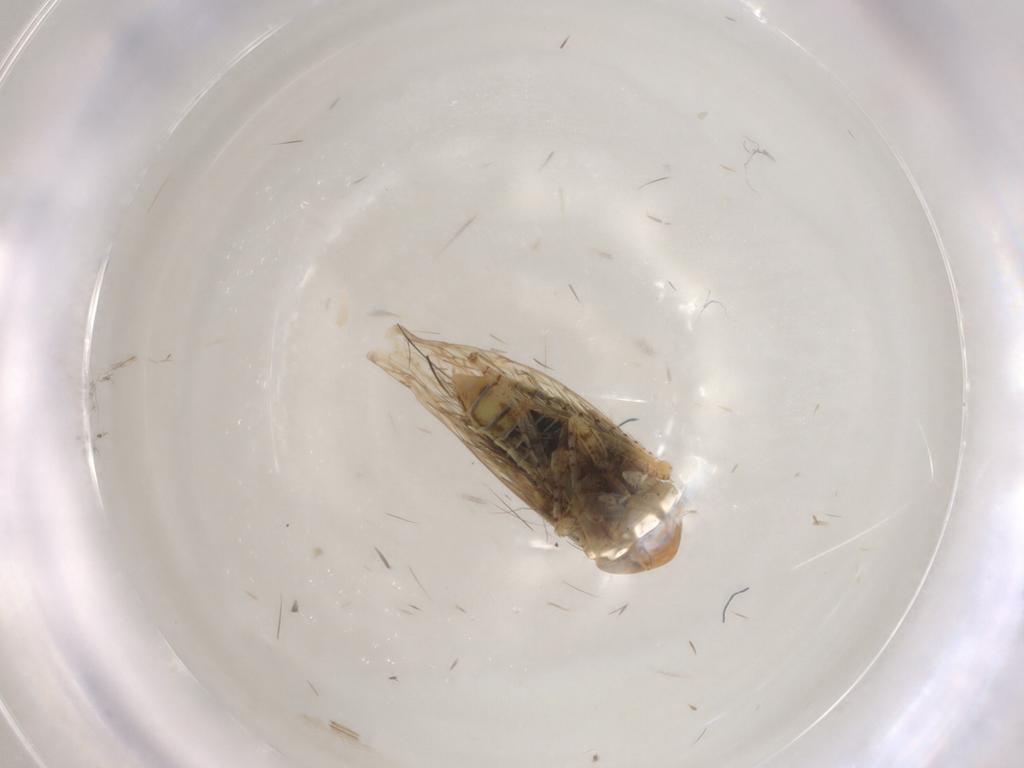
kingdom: Animalia
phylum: Arthropoda
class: Insecta
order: Hemiptera
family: Cicadellidae
